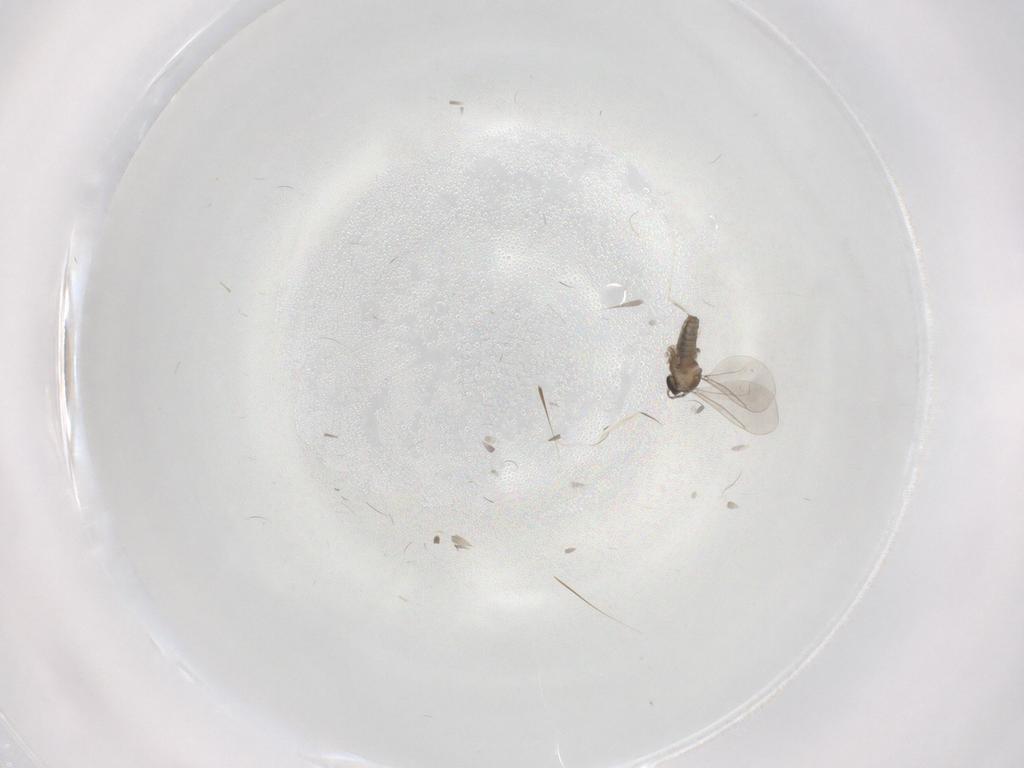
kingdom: Animalia
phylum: Arthropoda
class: Insecta
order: Diptera
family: Cecidomyiidae
